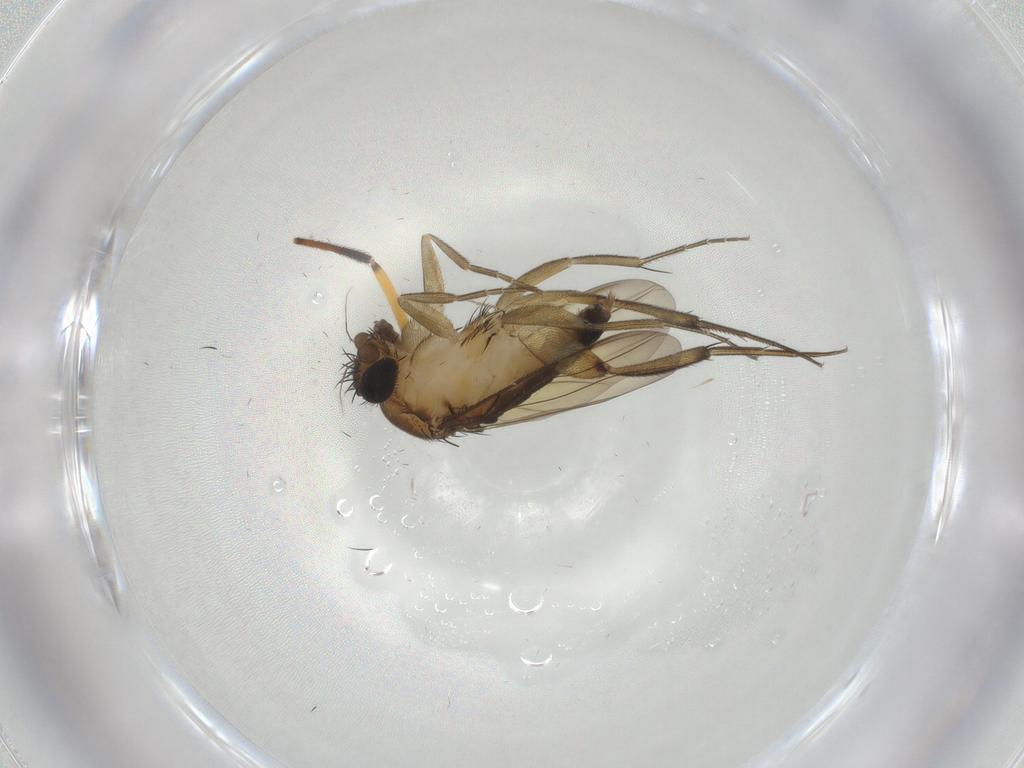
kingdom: Animalia
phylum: Arthropoda
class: Insecta
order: Diptera
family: Phoridae
